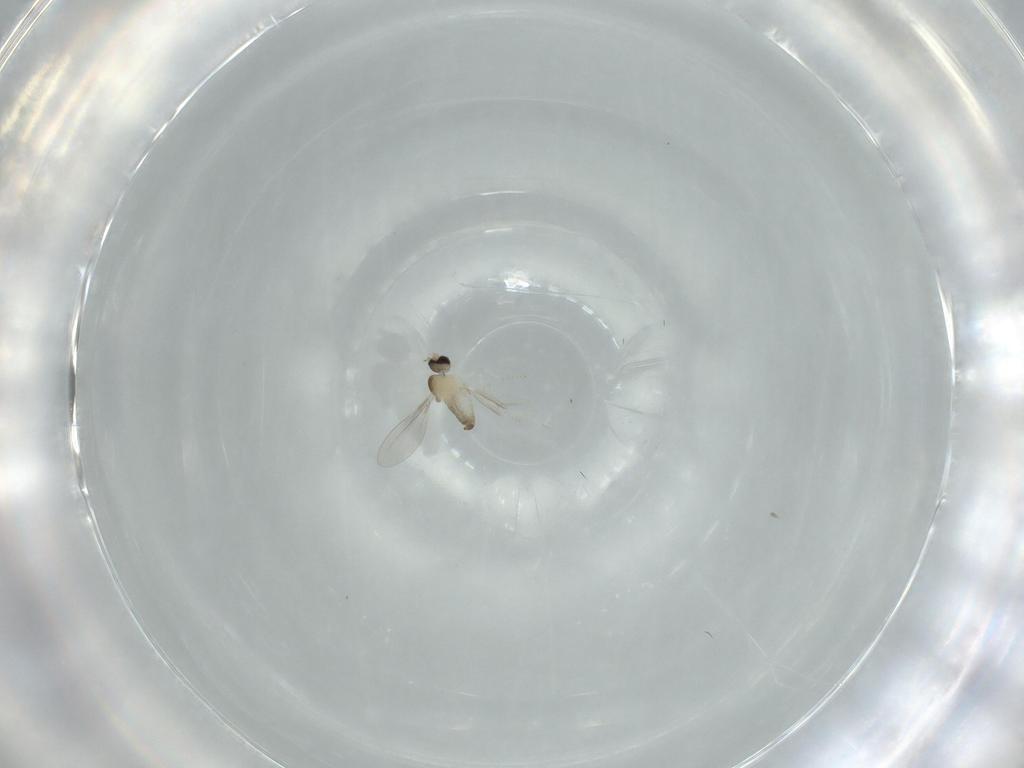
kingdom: Animalia
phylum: Arthropoda
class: Insecta
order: Diptera
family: Cecidomyiidae
